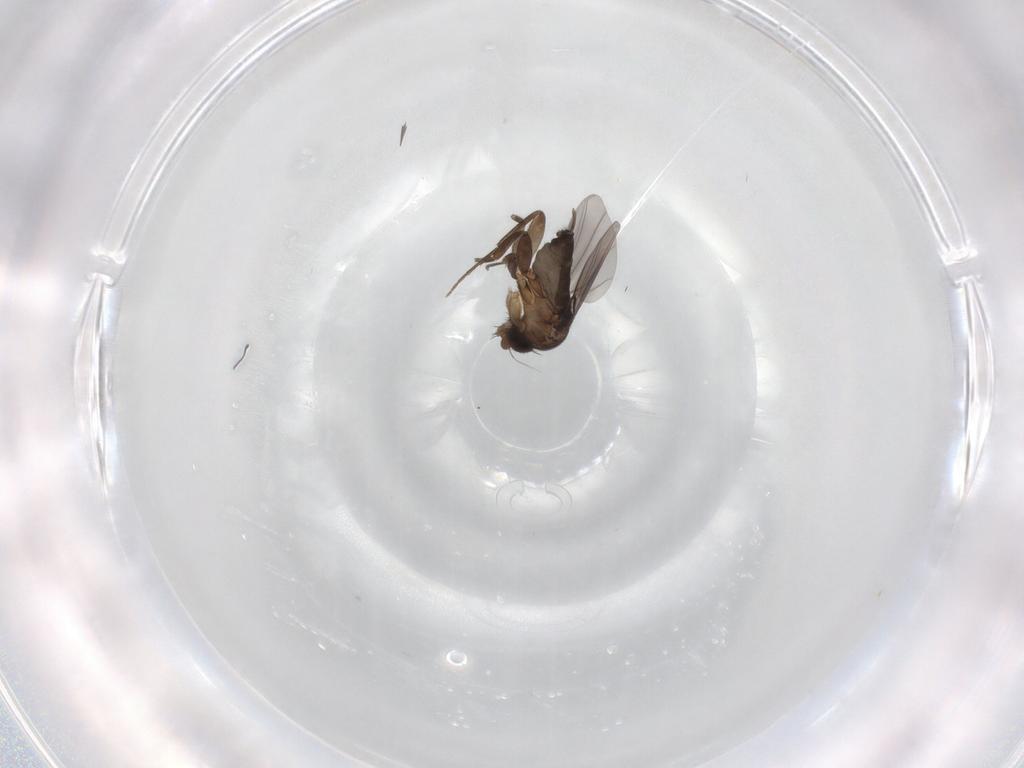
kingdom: Animalia
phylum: Arthropoda
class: Insecta
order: Diptera
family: Phoridae
